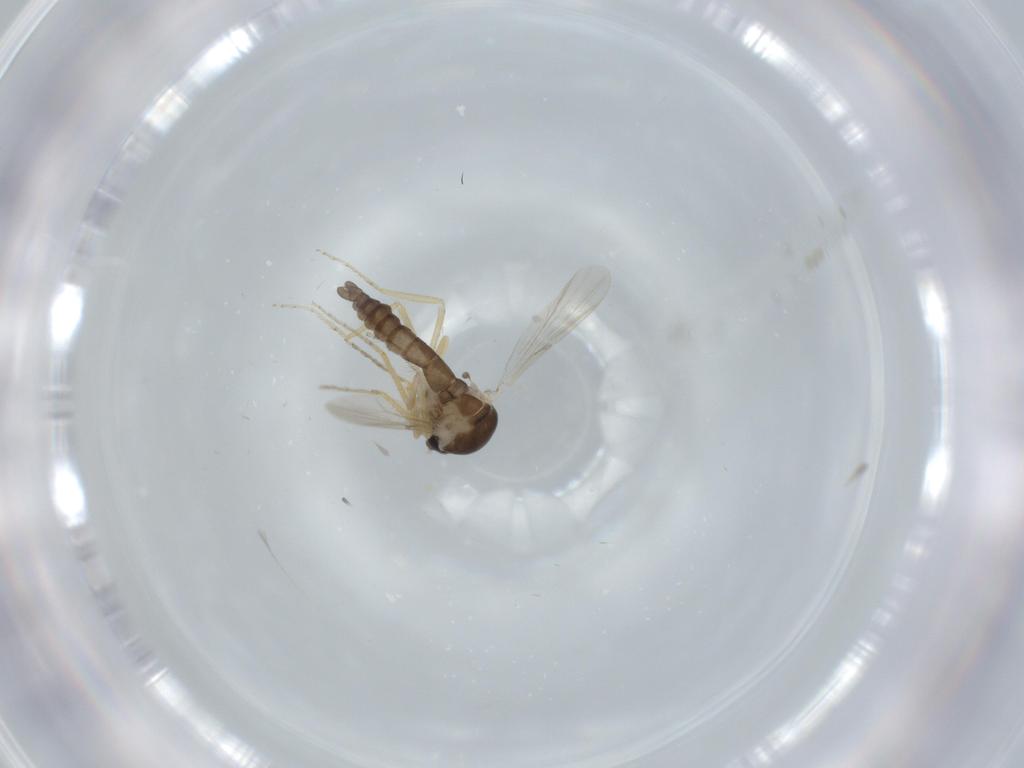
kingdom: Animalia
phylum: Arthropoda
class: Insecta
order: Diptera
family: Ceratopogonidae
